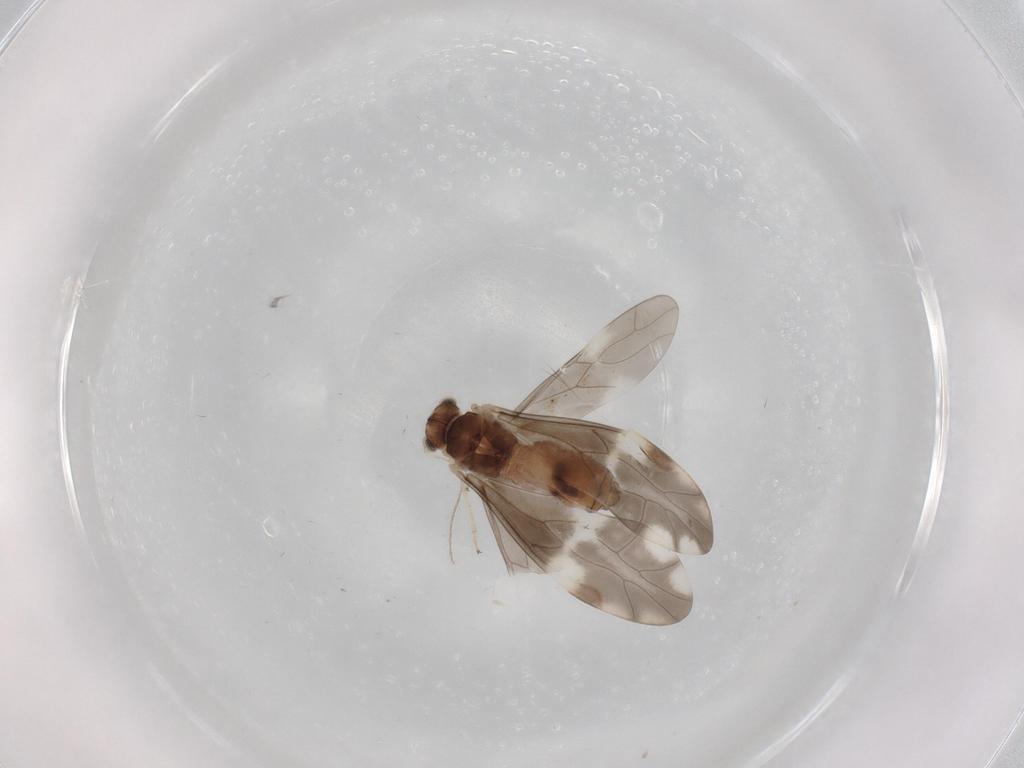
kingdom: Animalia
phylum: Arthropoda
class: Insecta
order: Psocodea
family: Peripsocidae
